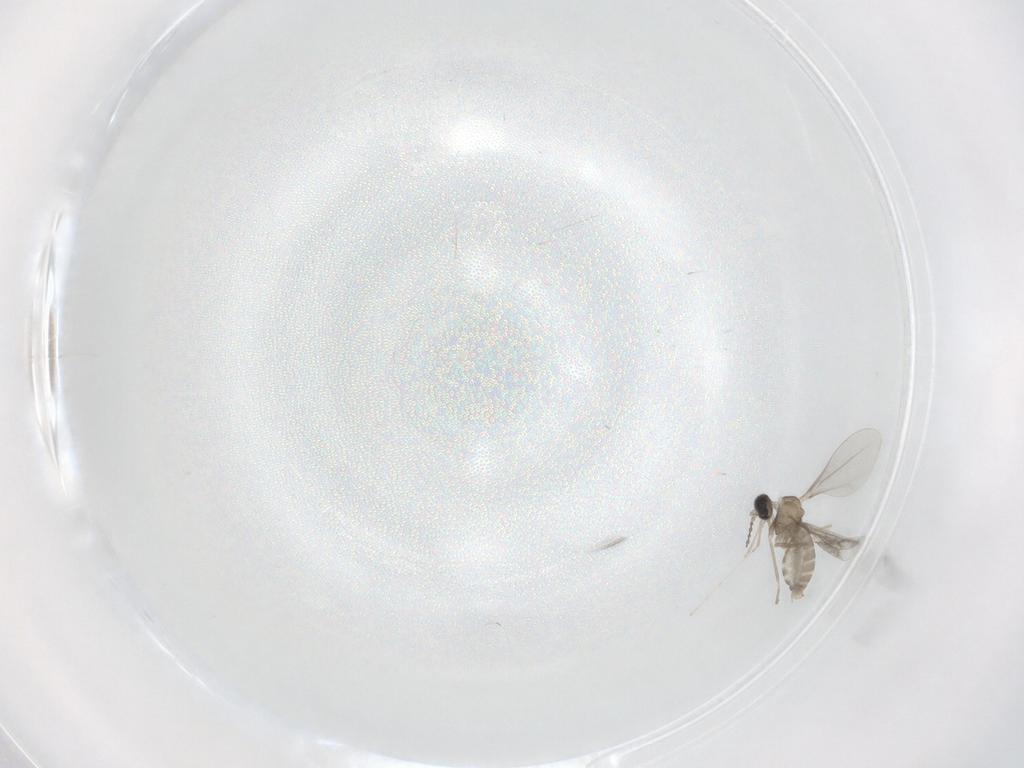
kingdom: Animalia
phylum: Arthropoda
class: Insecta
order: Diptera
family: Cecidomyiidae
